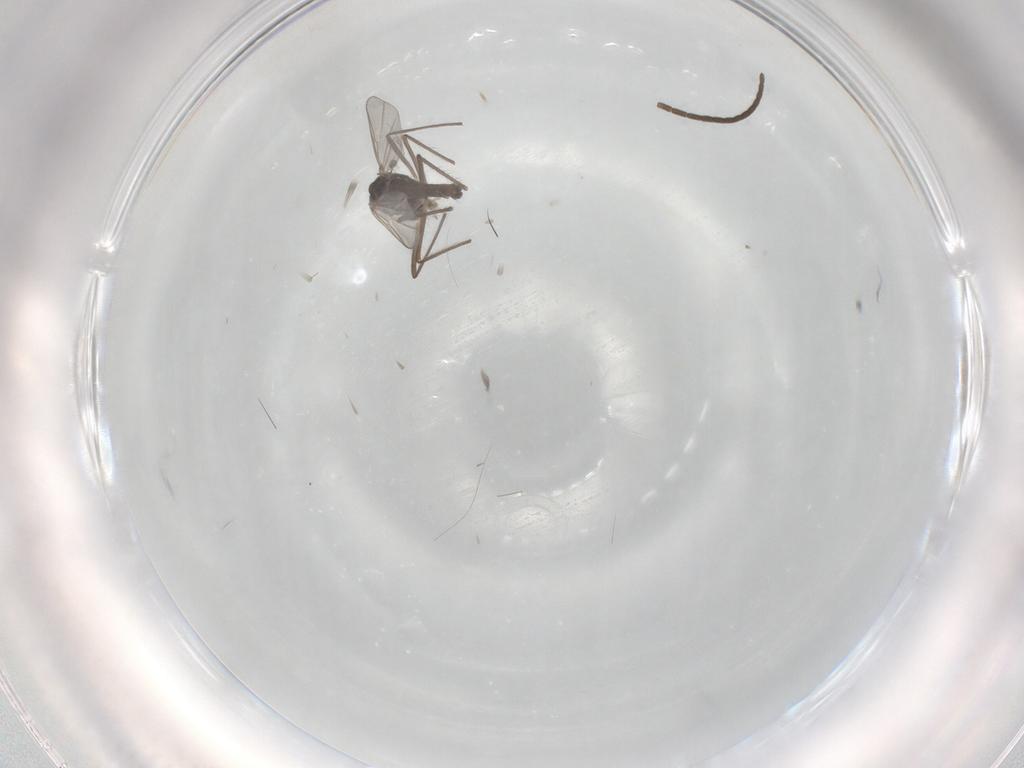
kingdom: Animalia
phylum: Arthropoda
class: Insecta
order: Diptera
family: Chironomidae
